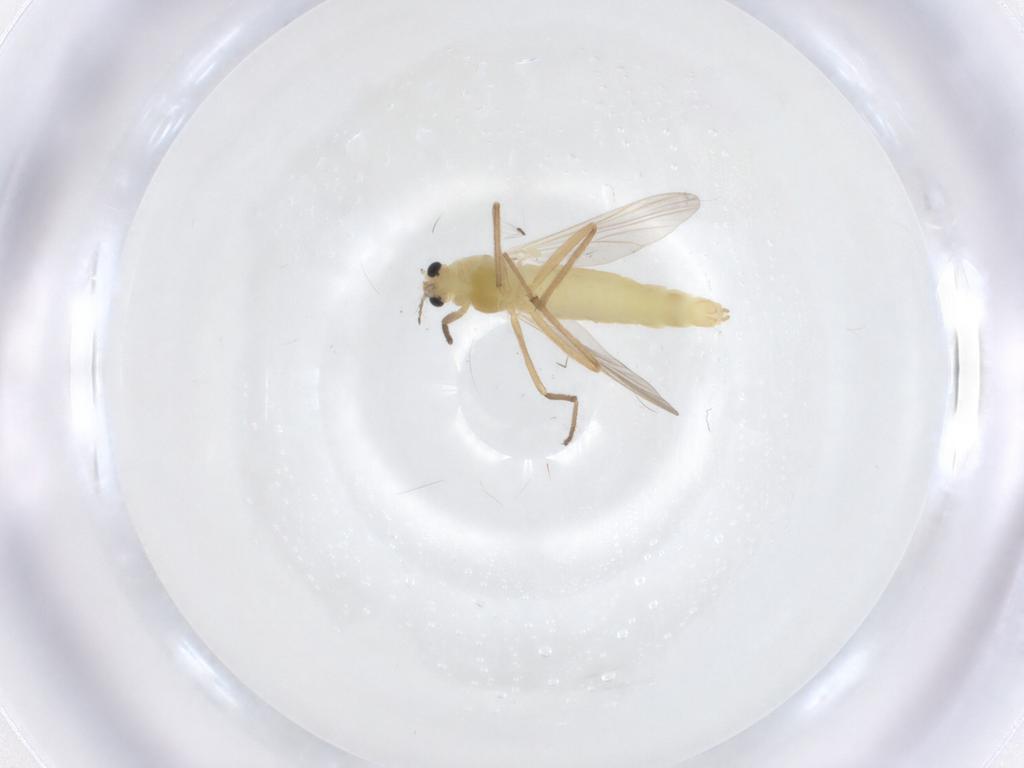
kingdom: Animalia
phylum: Arthropoda
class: Insecta
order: Diptera
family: Chironomidae
